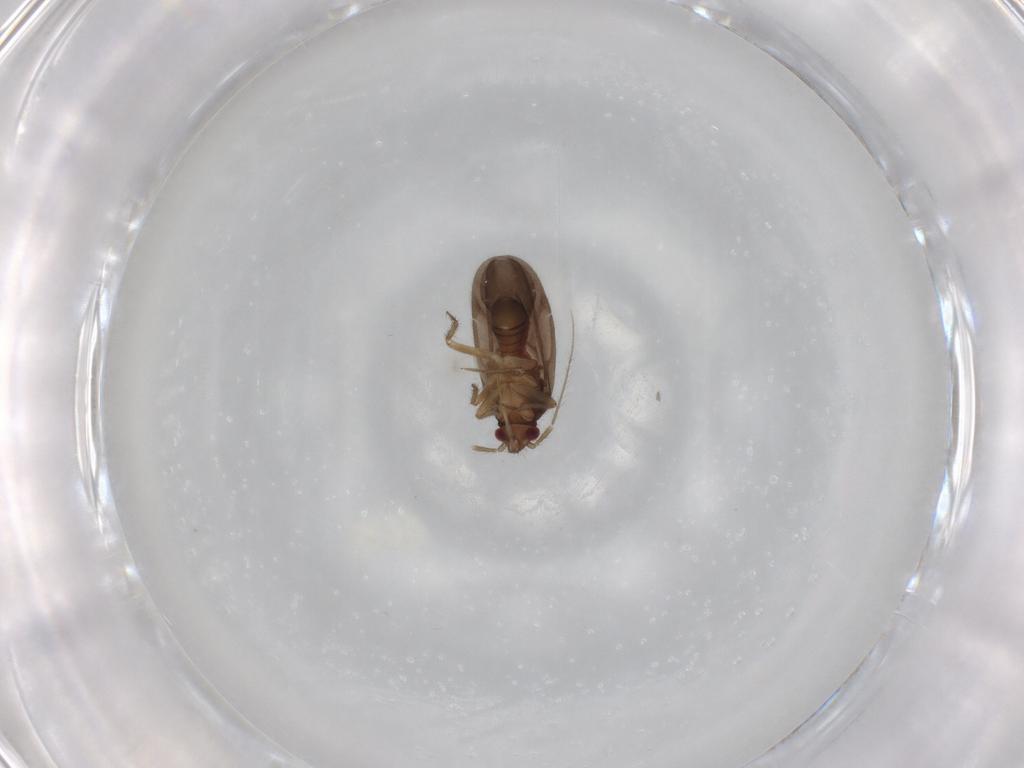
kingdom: Animalia
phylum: Arthropoda
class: Insecta
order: Hemiptera
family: Ceratocombidae
